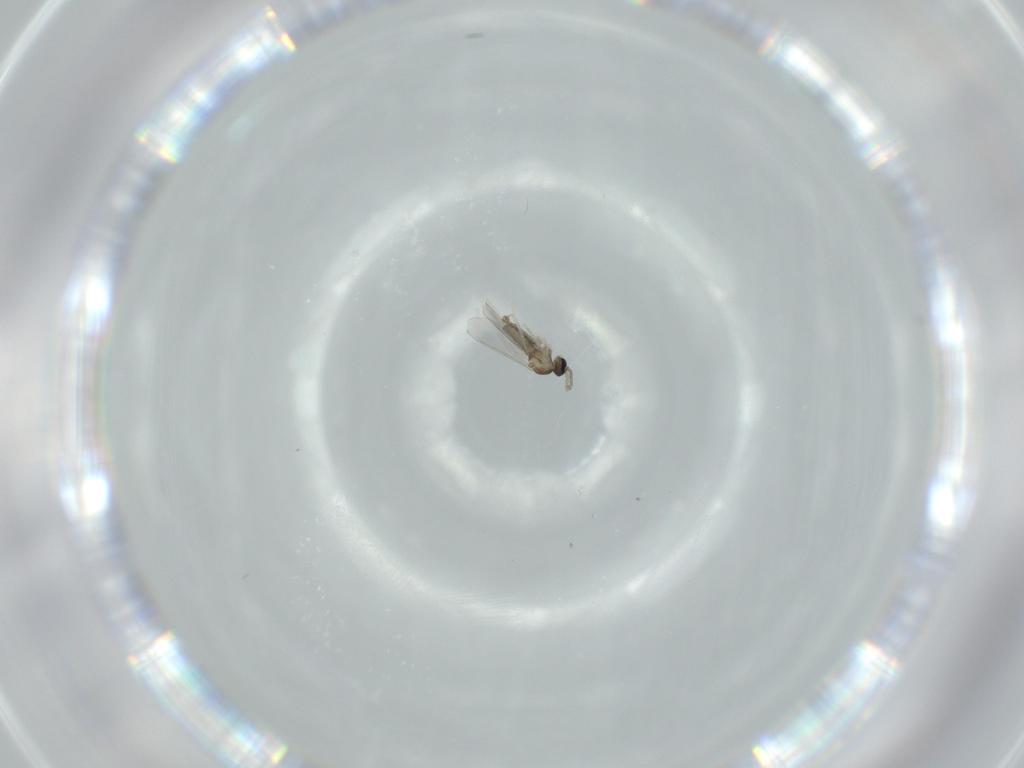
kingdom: Animalia
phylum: Arthropoda
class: Insecta
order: Diptera
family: Cecidomyiidae
